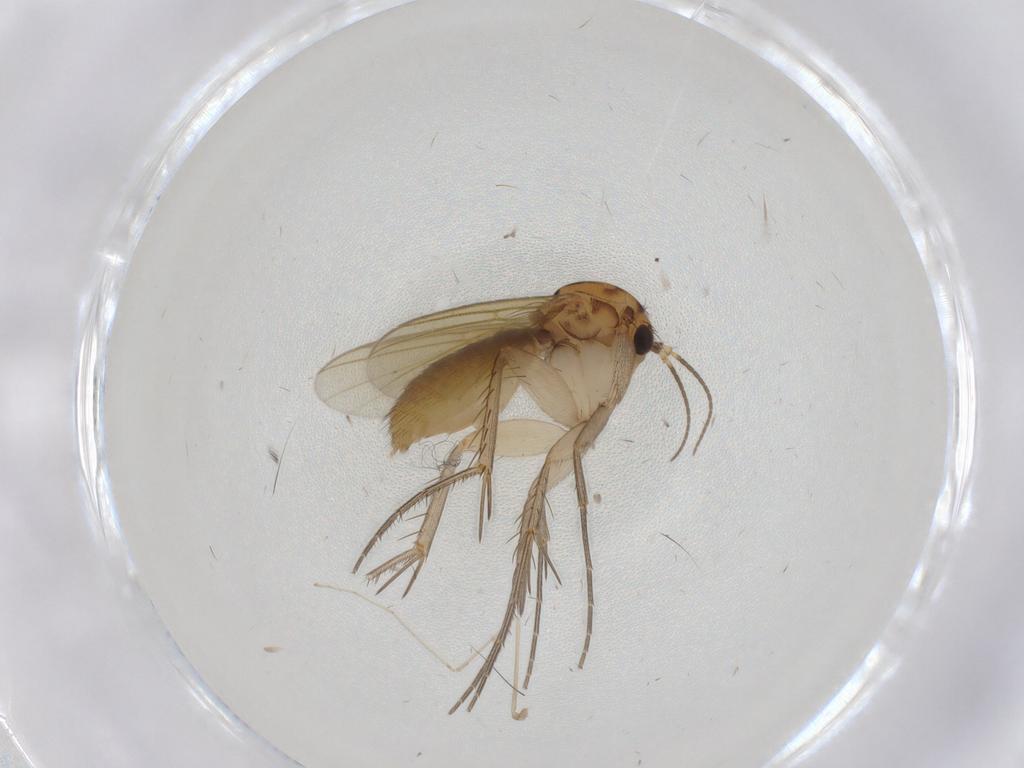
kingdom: Animalia
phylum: Arthropoda
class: Insecta
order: Diptera
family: Mycetophilidae
